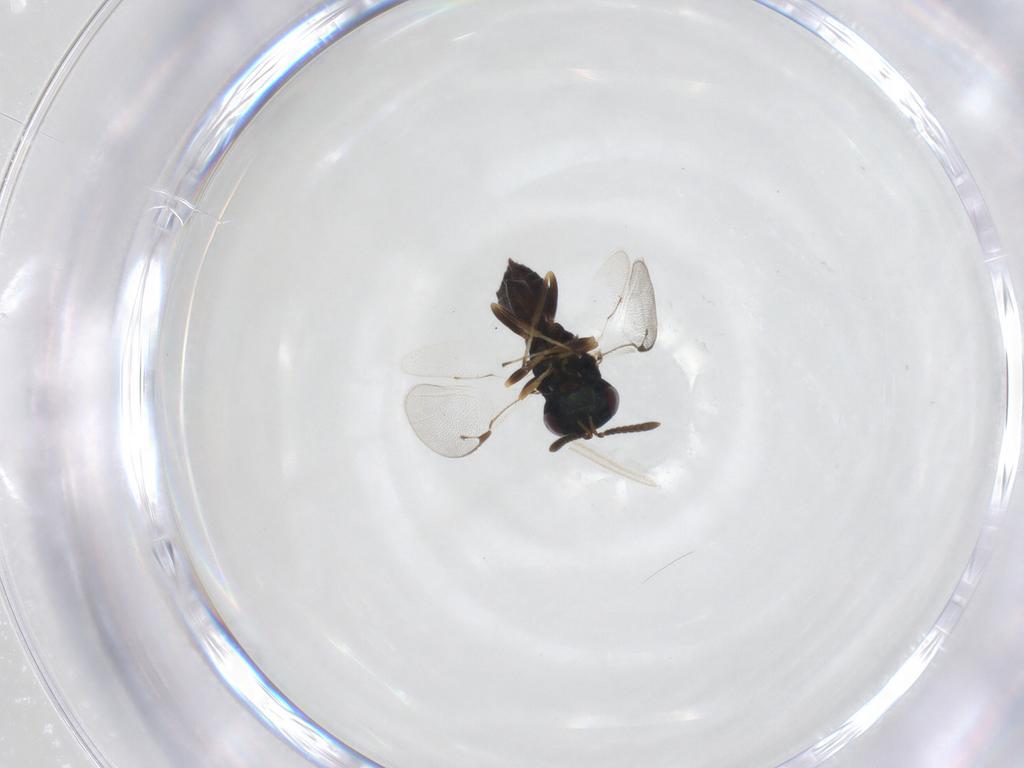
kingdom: Animalia
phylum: Arthropoda
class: Insecta
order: Hymenoptera
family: Pteromalidae
